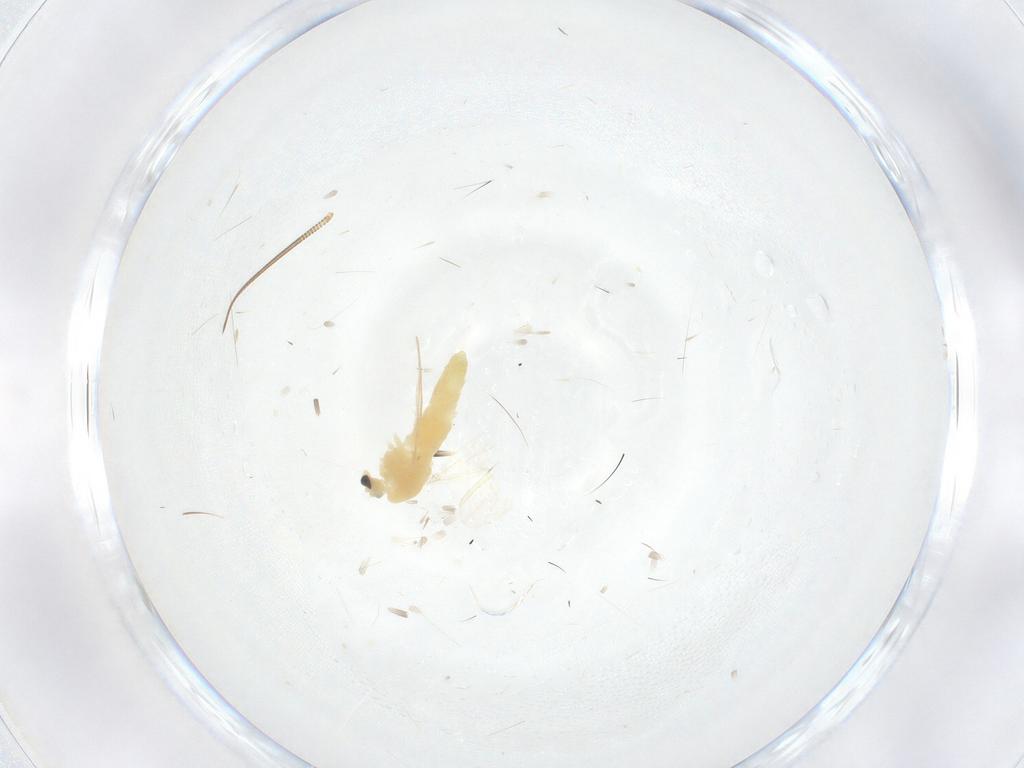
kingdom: Animalia
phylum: Arthropoda
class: Insecta
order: Diptera
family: Chironomidae
